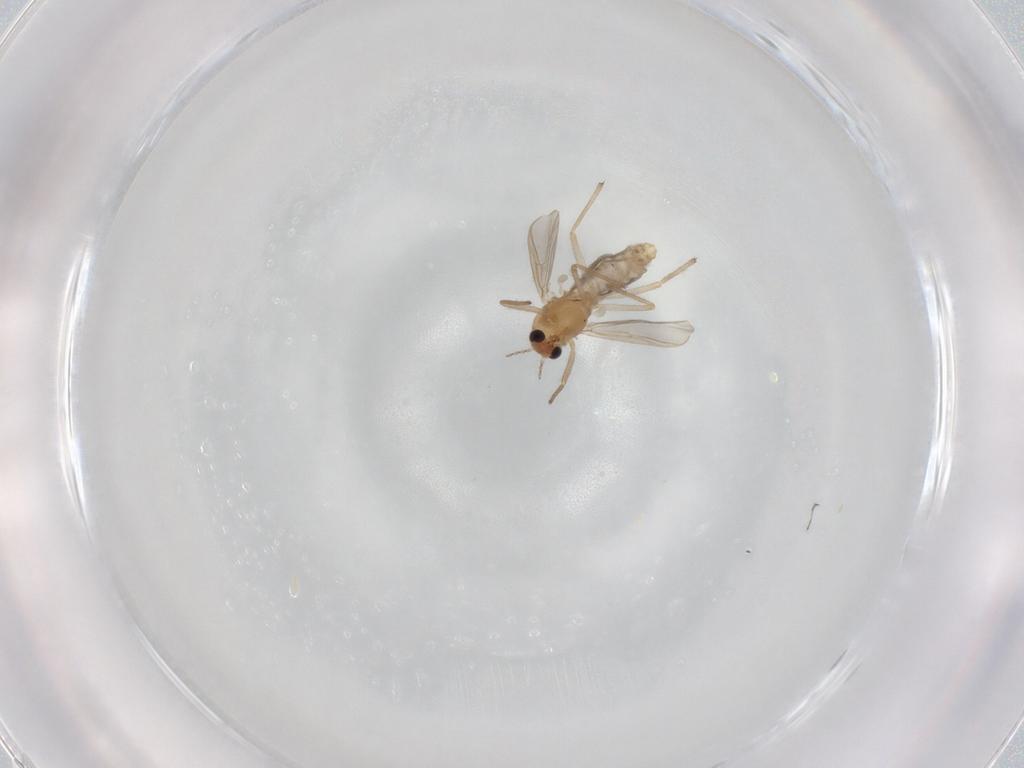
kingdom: Animalia
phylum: Arthropoda
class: Insecta
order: Diptera
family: Chironomidae
